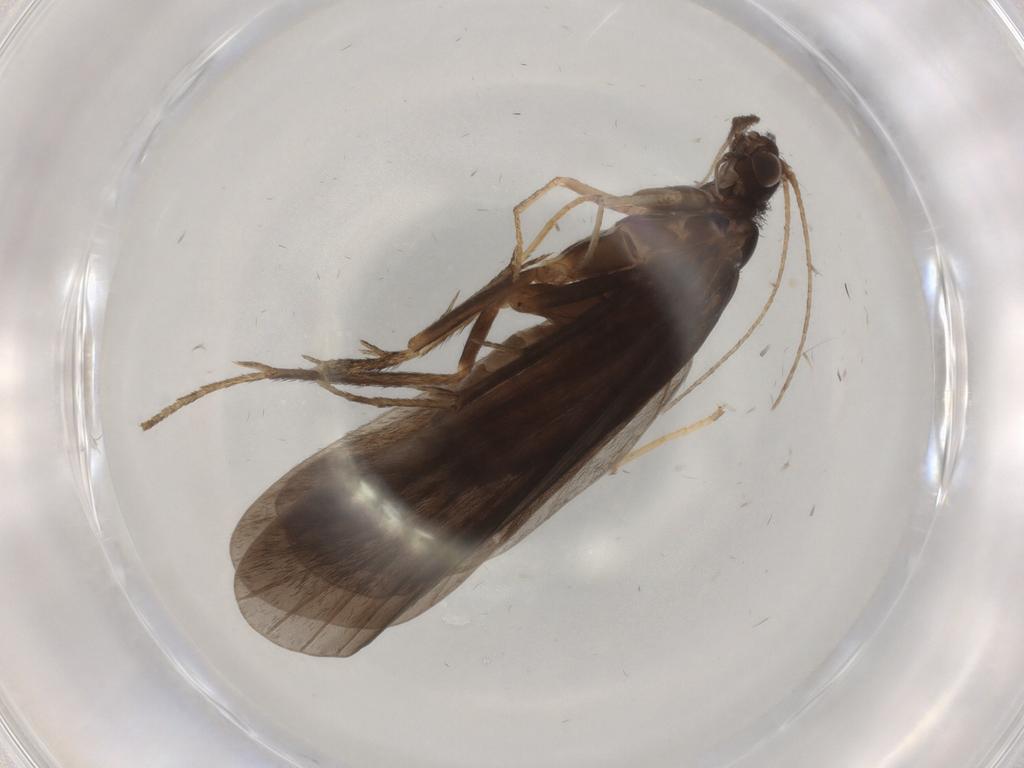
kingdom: Animalia
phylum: Arthropoda
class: Insecta
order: Trichoptera
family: Hydropsychidae
